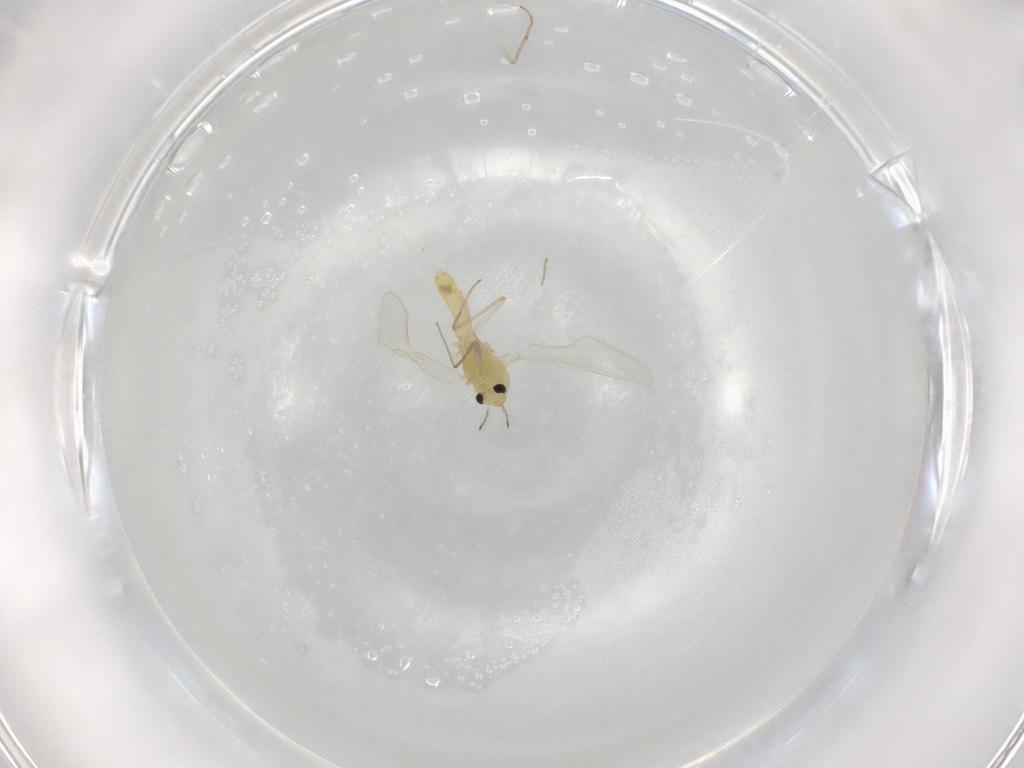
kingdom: Animalia
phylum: Arthropoda
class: Insecta
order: Diptera
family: Chironomidae
